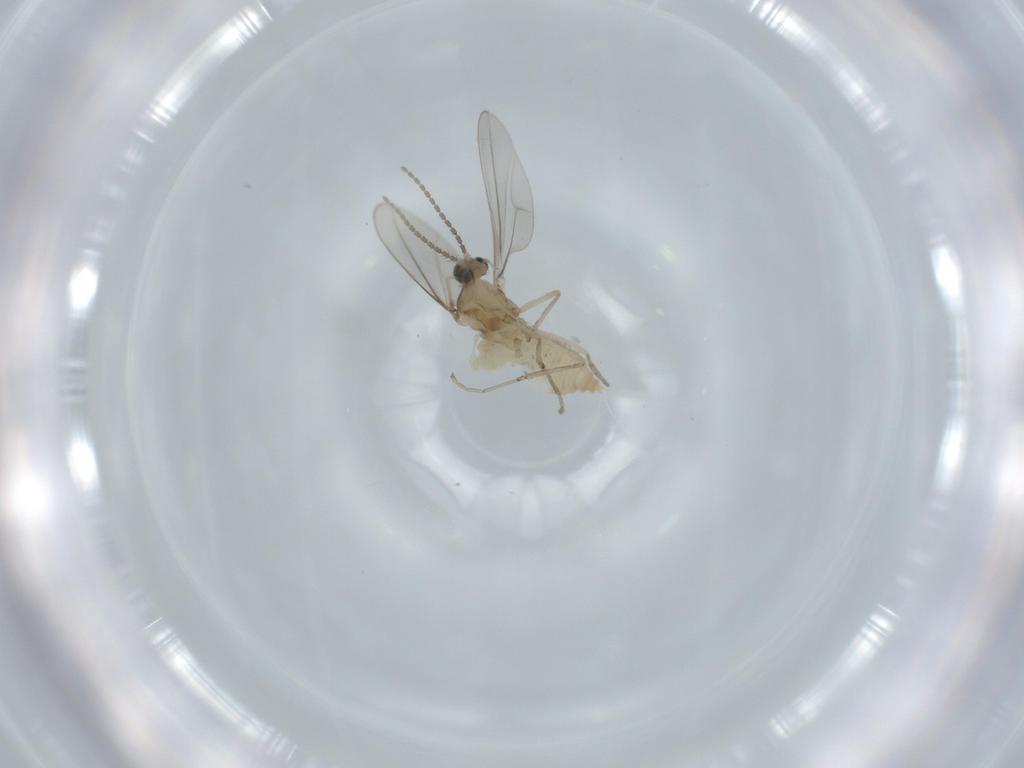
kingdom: Animalia
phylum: Arthropoda
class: Insecta
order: Diptera
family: Cecidomyiidae
